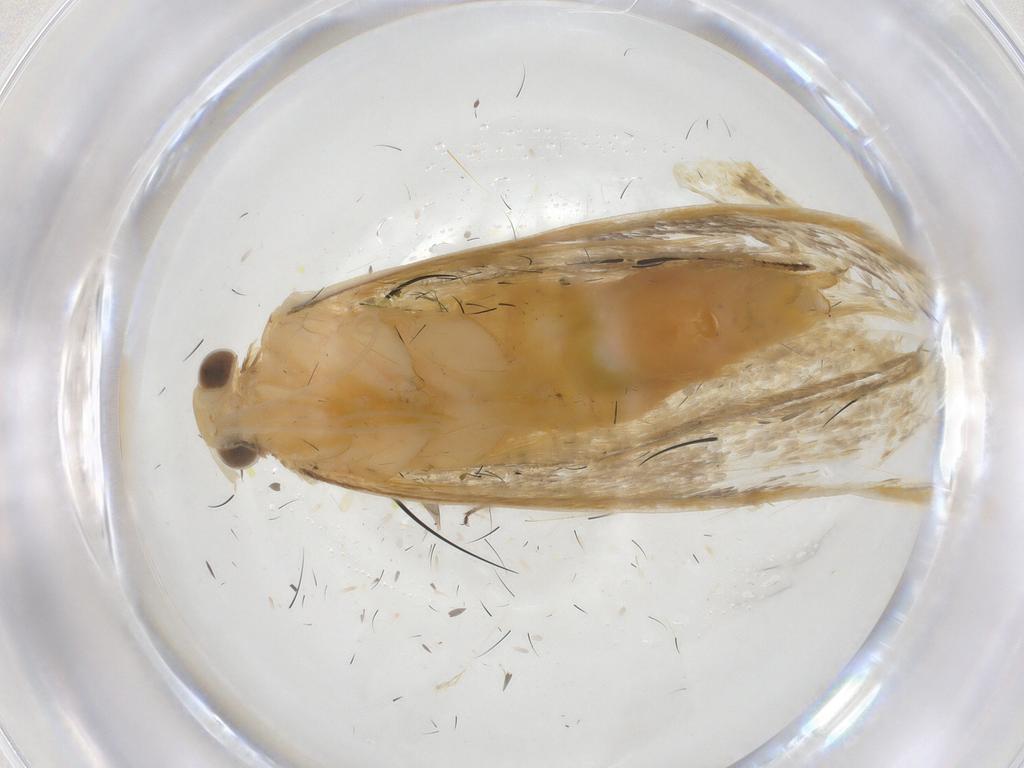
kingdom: Animalia
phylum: Arthropoda
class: Insecta
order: Lepidoptera
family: Lecithoceridae
